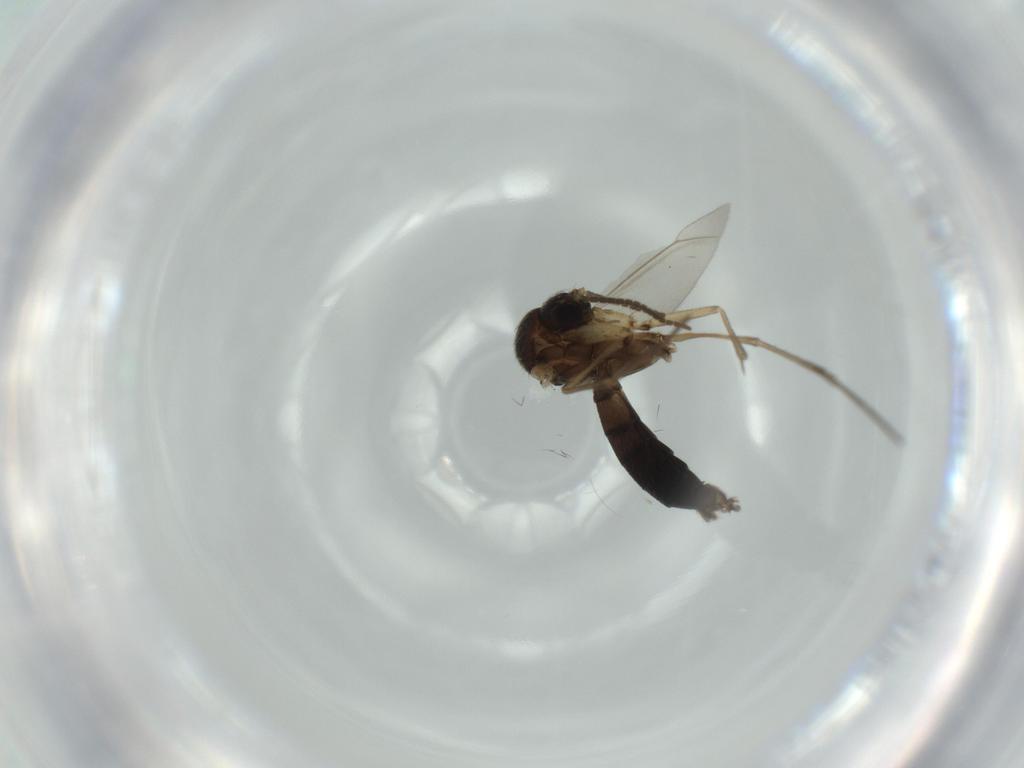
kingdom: Animalia
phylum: Arthropoda
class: Insecta
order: Diptera
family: Mycetophilidae
